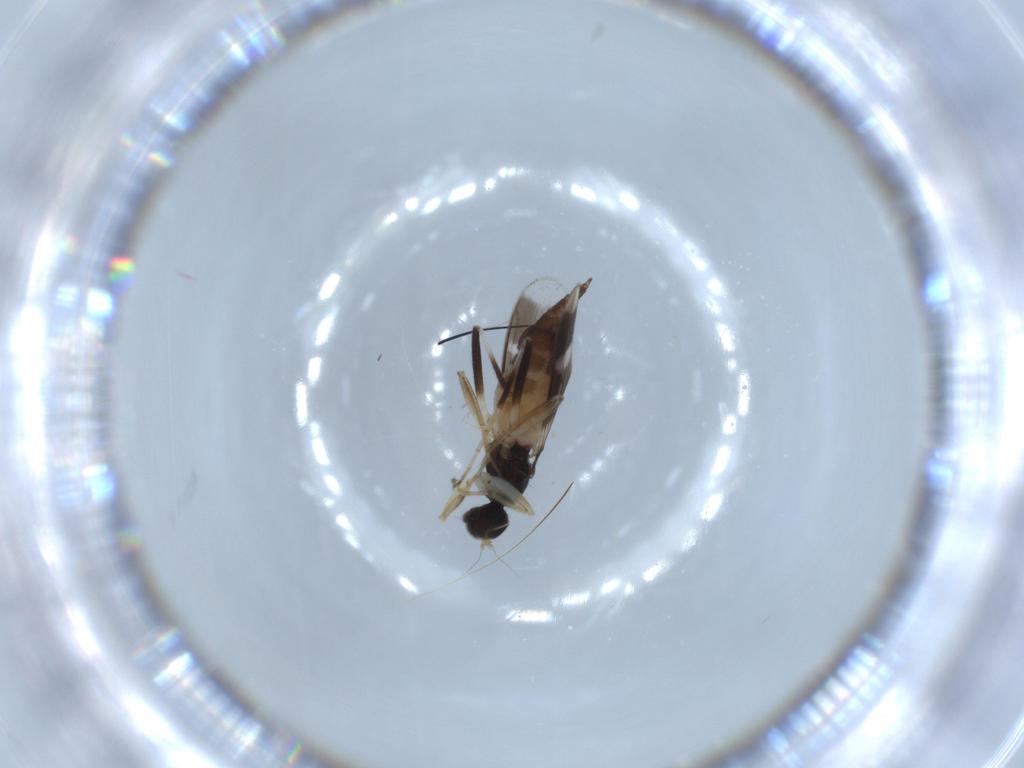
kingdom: Animalia
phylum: Arthropoda
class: Insecta
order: Diptera
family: Hybotidae
